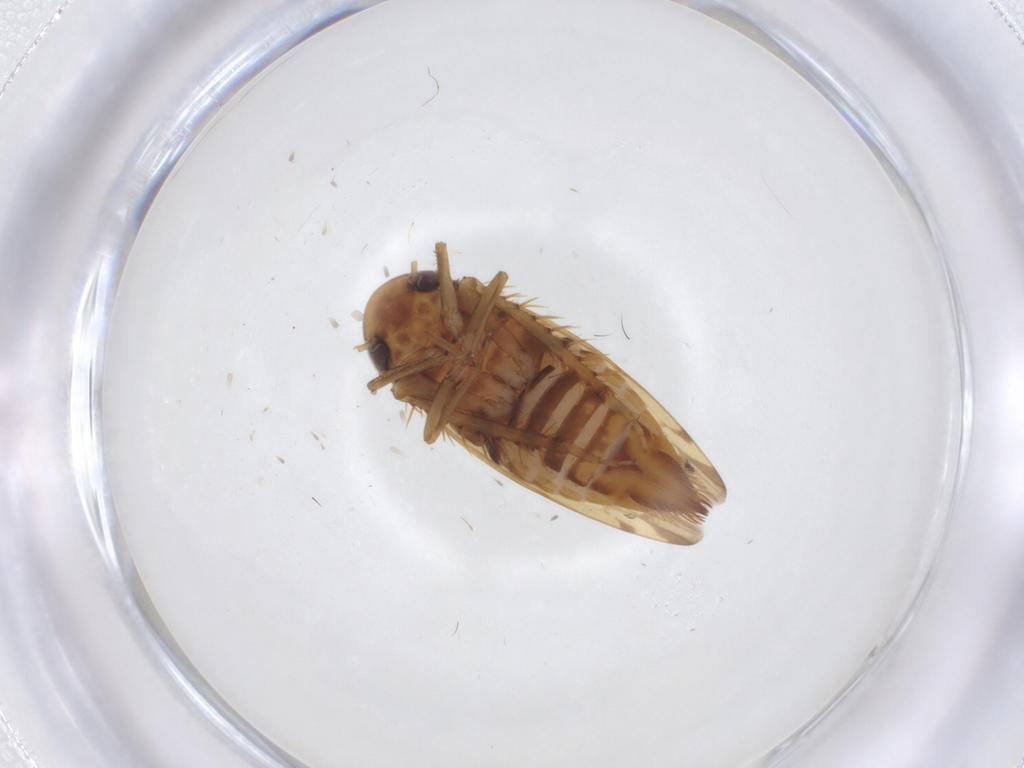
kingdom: Animalia
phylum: Arthropoda
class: Insecta
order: Hemiptera
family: Cicadellidae
